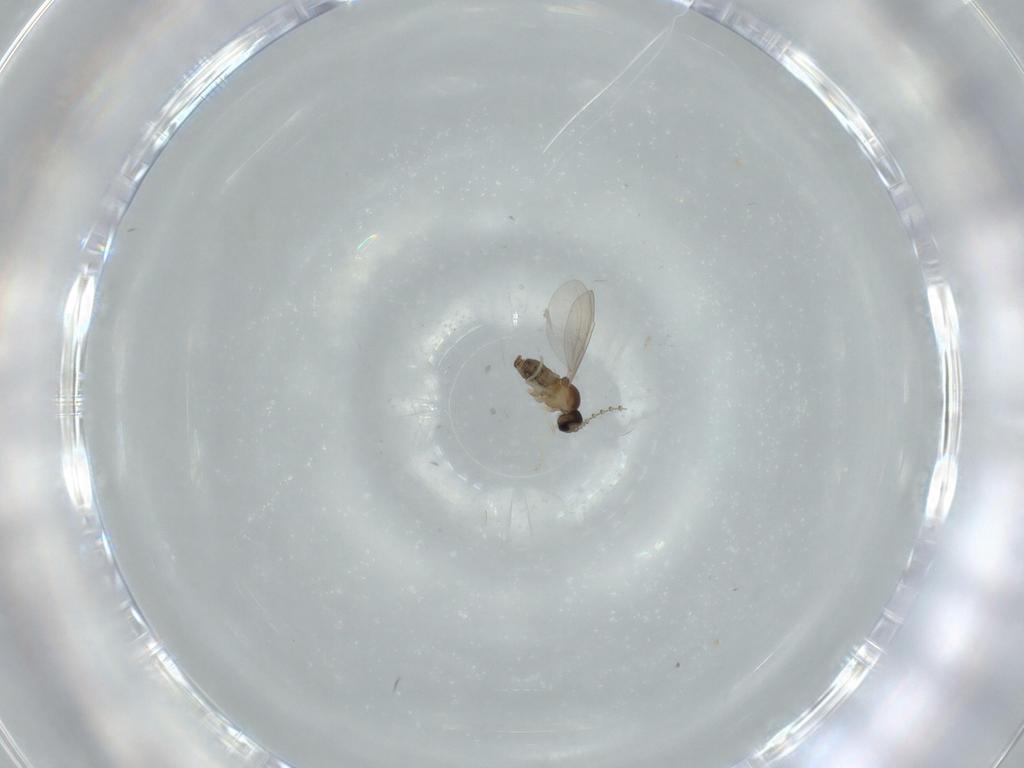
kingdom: Animalia
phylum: Arthropoda
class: Insecta
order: Diptera
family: Cecidomyiidae
